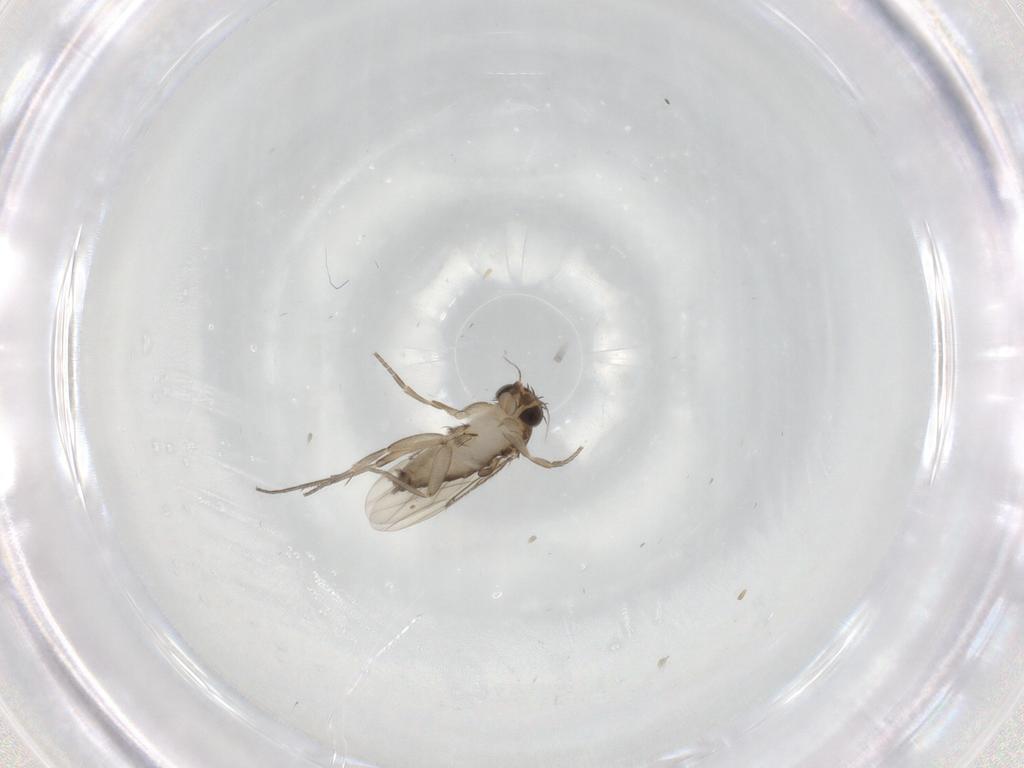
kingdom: Animalia
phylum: Arthropoda
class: Insecta
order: Diptera
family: Phoridae
